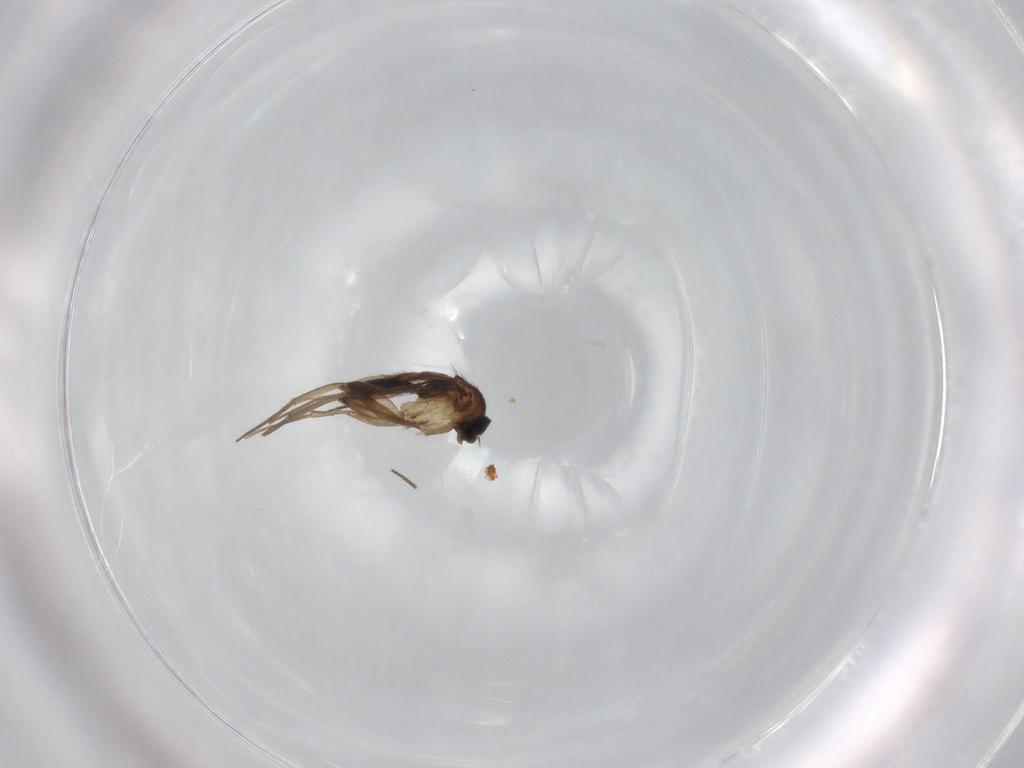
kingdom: Animalia
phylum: Arthropoda
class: Insecta
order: Diptera
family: Phoridae
